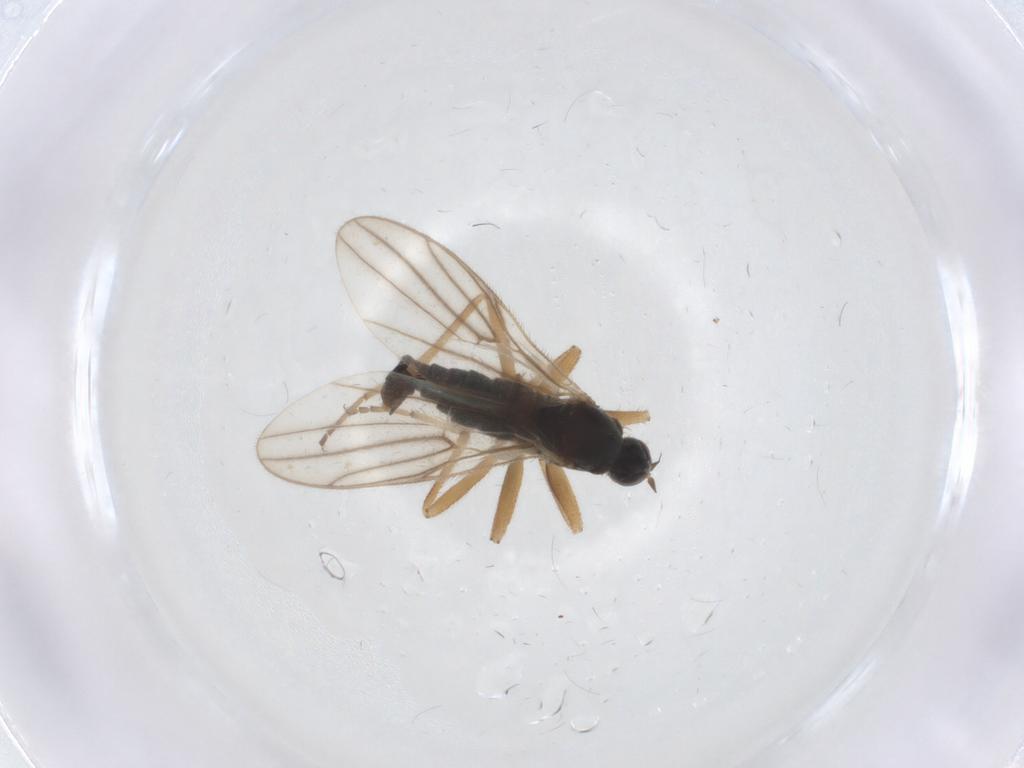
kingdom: Animalia
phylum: Arthropoda
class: Insecta
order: Diptera
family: Hybotidae
